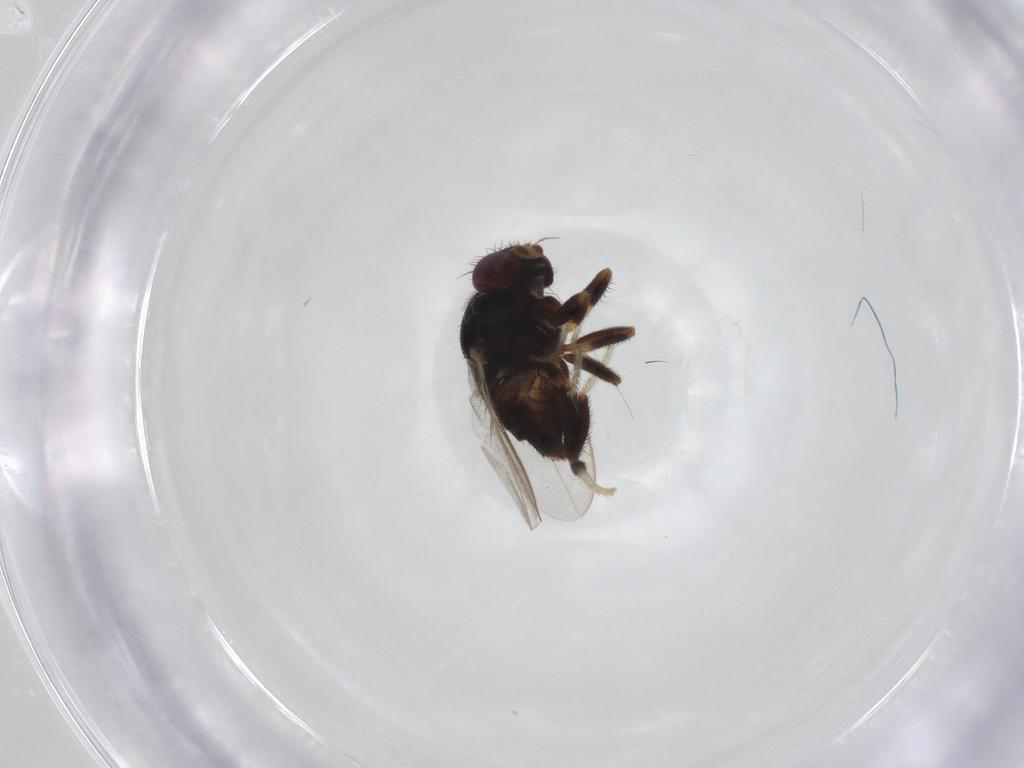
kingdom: Animalia
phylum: Arthropoda
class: Insecta
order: Diptera
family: Chloropidae
